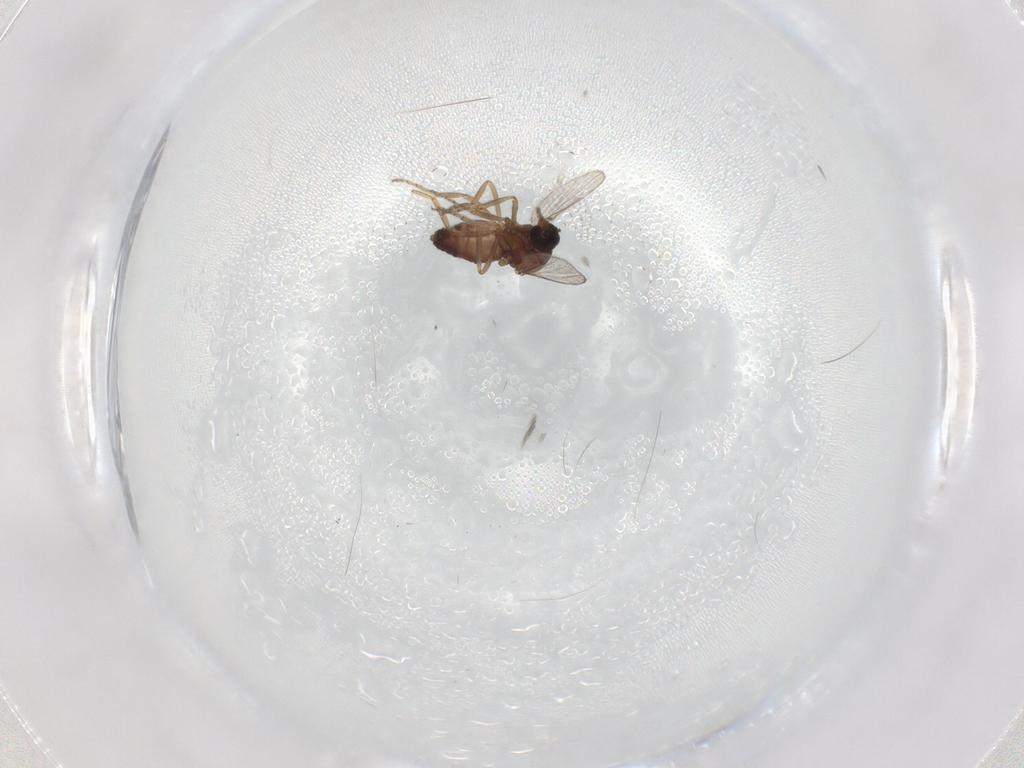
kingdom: Animalia
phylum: Arthropoda
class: Insecta
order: Diptera
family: Ceratopogonidae
